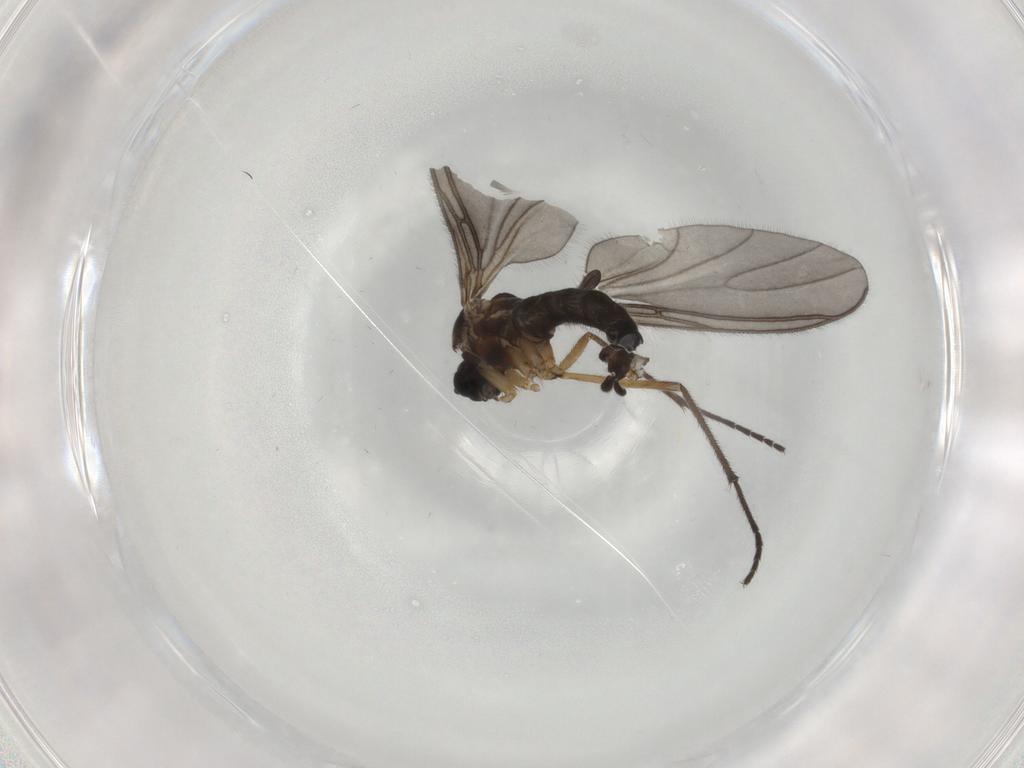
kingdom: Animalia
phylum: Arthropoda
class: Insecta
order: Diptera
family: Sciaridae
